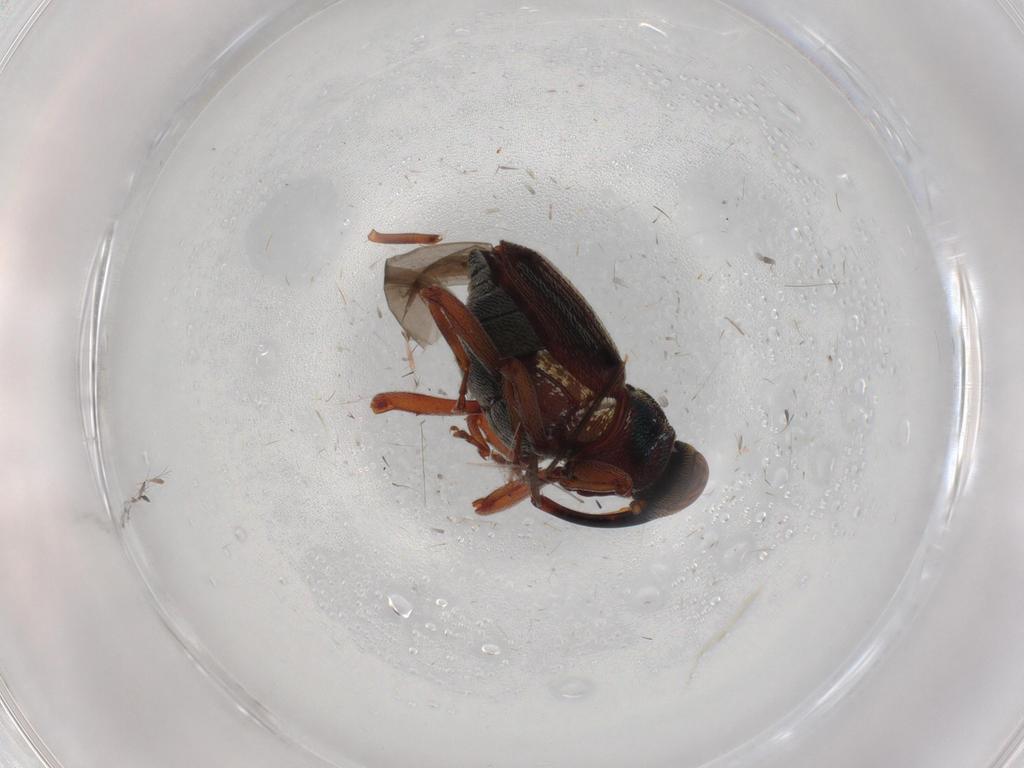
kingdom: Animalia
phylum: Arthropoda
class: Insecta
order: Coleoptera
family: Curculionidae
